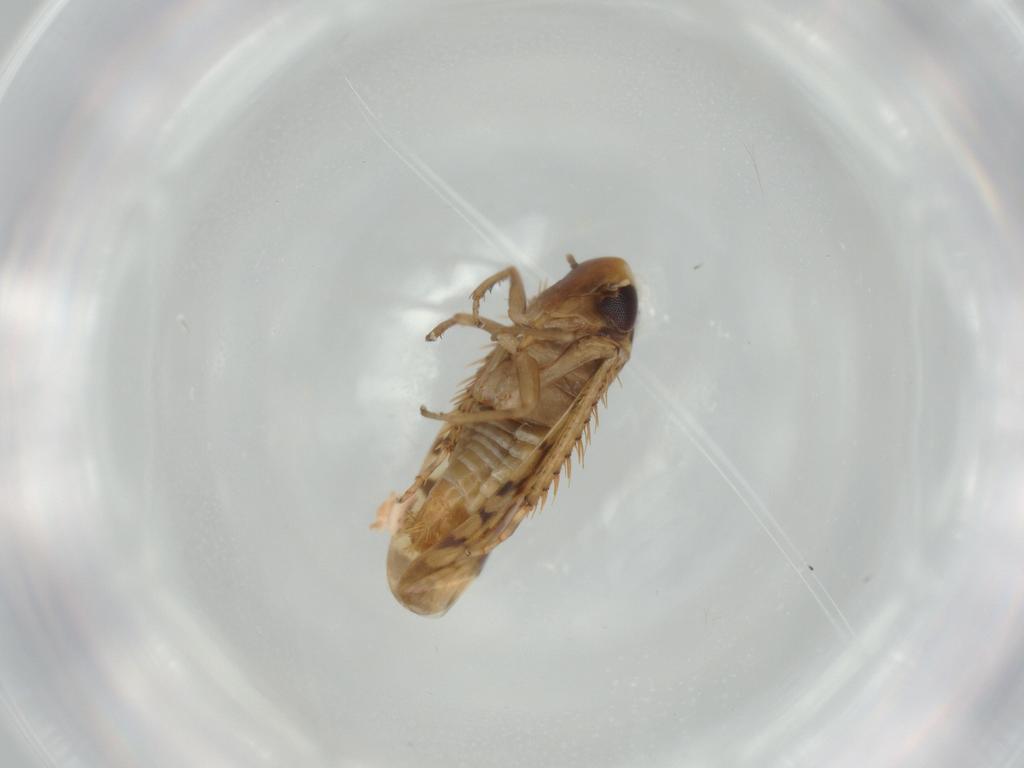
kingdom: Animalia
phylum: Arthropoda
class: Insecta
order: Hemiptera
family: Cicadellidae
